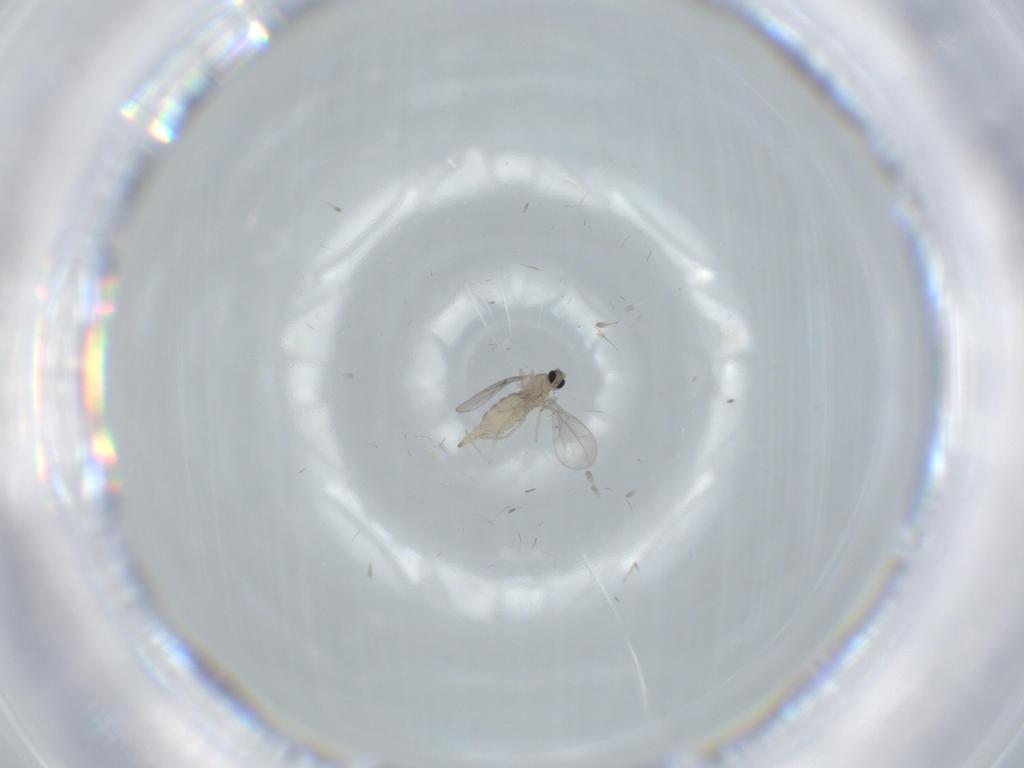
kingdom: Animalia
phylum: Arthropoda
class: Insecta
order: Diptera
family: Cecidomyiidae
